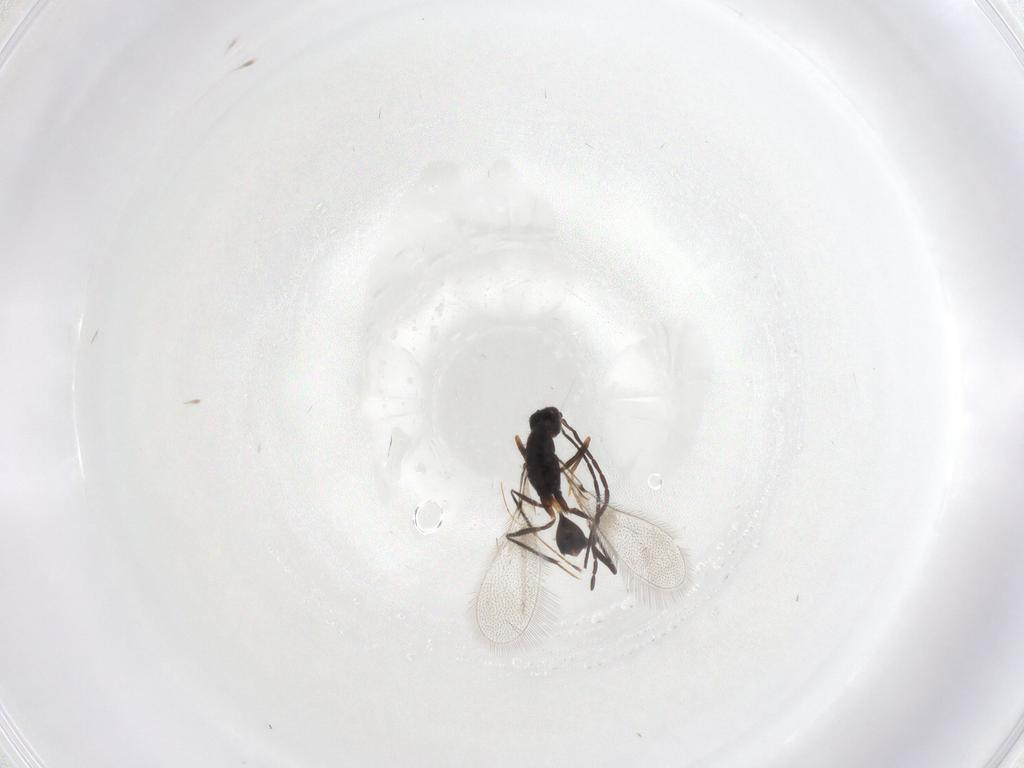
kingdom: Animalia
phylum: Arthropoda
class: Insecta
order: Hymenoptera
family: Mymaridae
